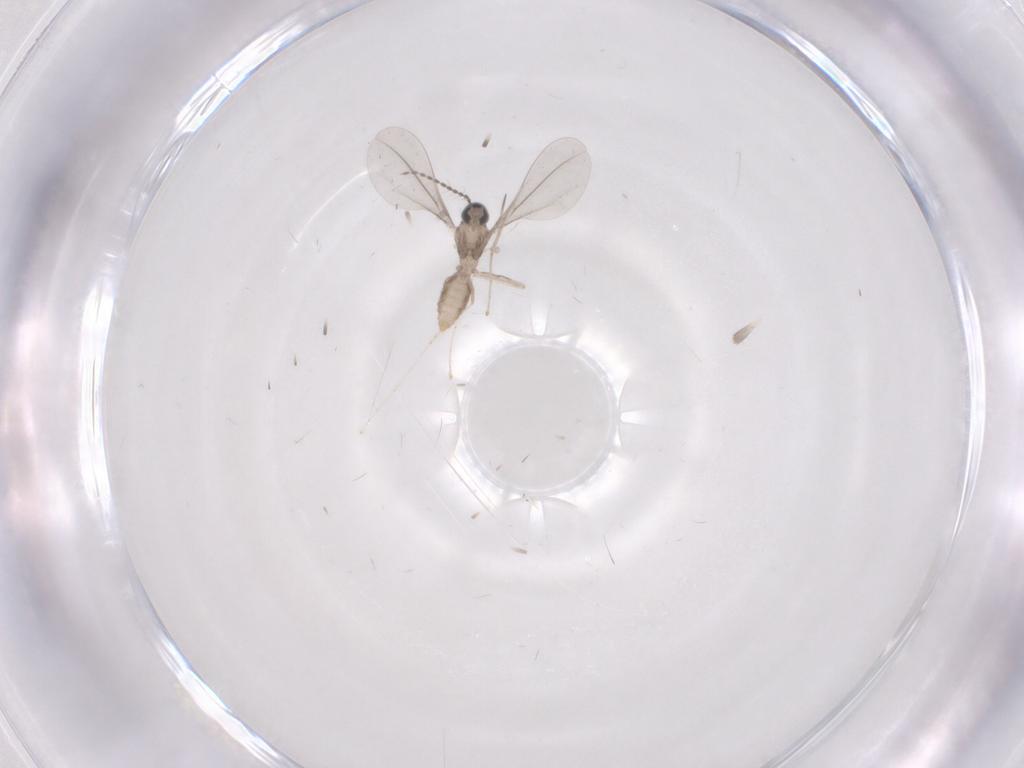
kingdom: Animalia
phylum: Arthropoda
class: Insecta
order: Diptera
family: Cecidomyiidae
